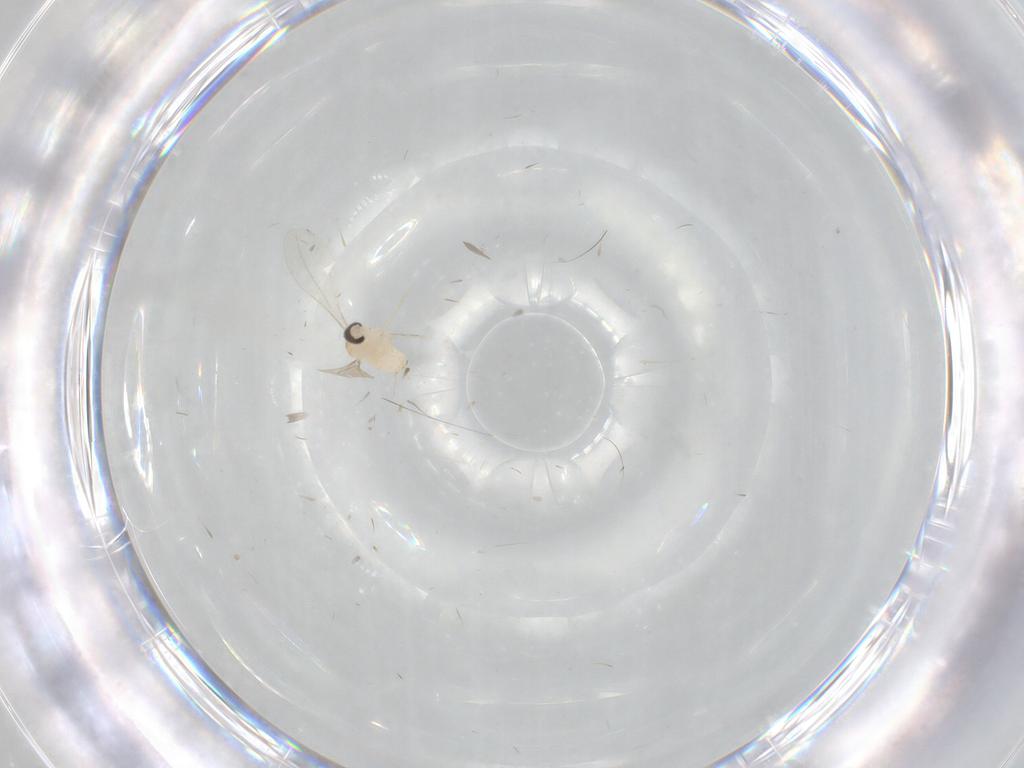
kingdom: Animalia
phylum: Arthropoda
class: Insecta
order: Diptera
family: Cecidomyiidae
